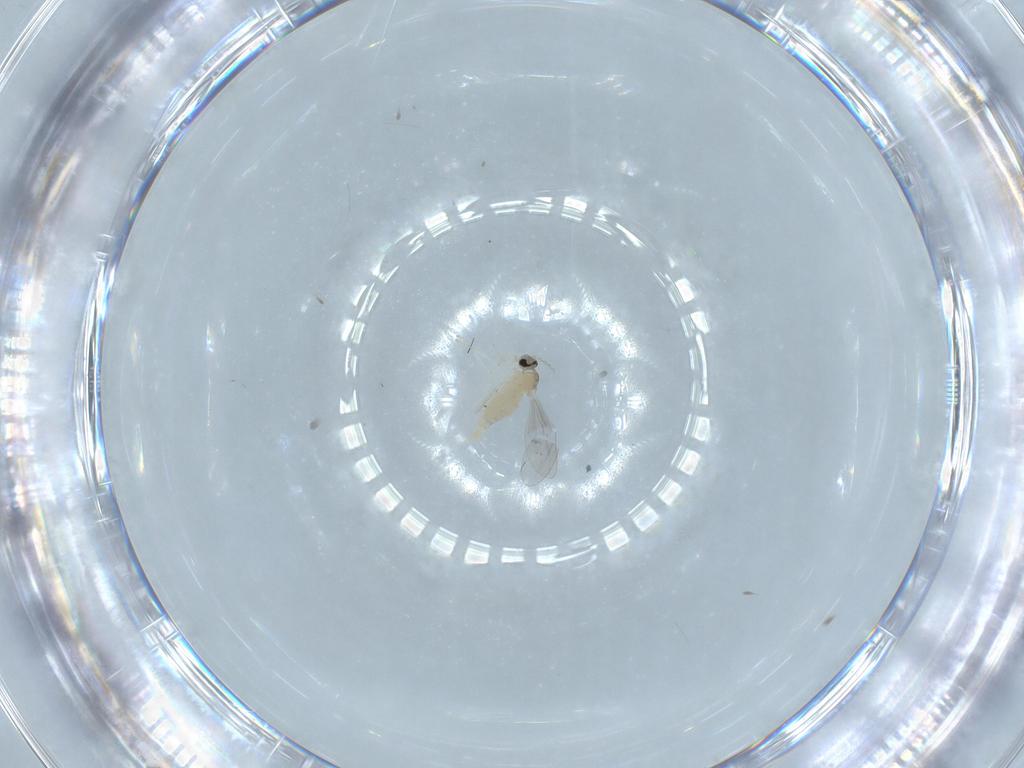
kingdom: Animalia
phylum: Arthropoda
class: Insecta
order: Diptera
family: Cecidomyiidae
